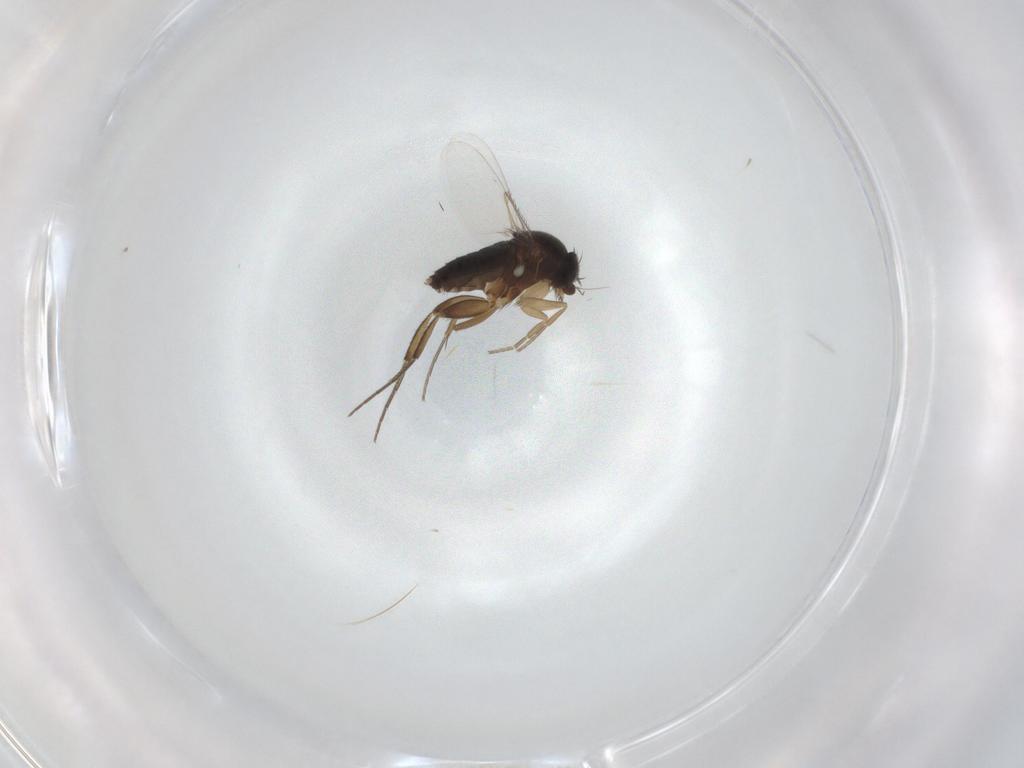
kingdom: Animalia
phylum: Arthropoda
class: Insecta
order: Diptera
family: Phoridae
